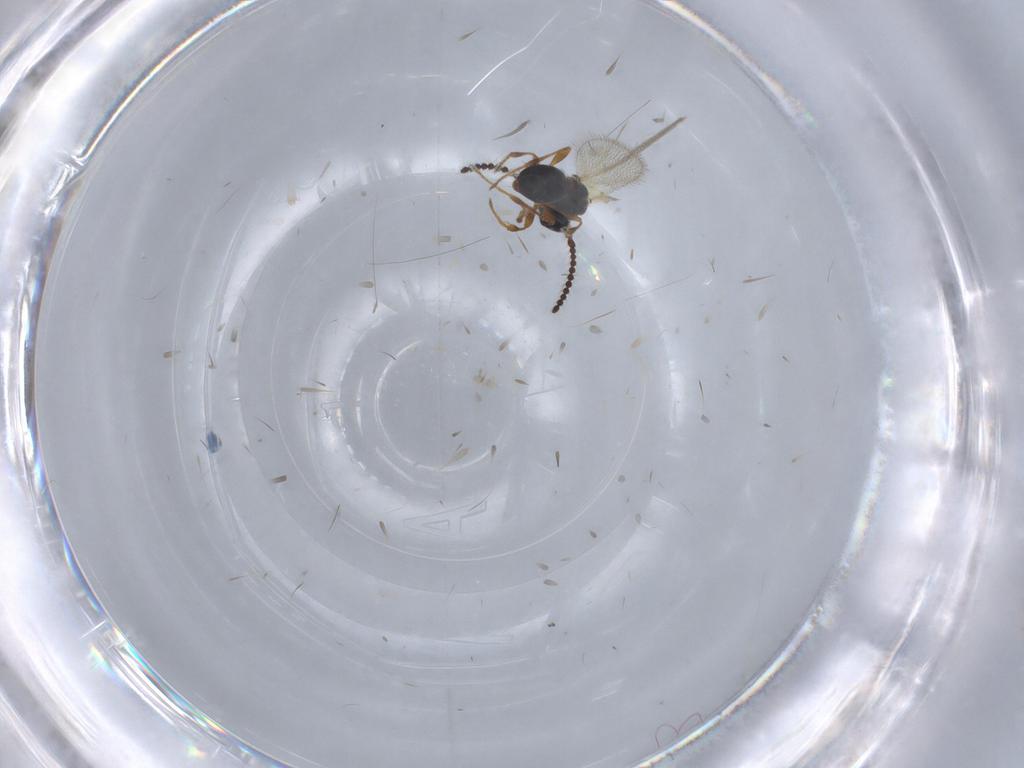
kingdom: Animalia
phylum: Arthropoda
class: Insecta
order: Hymenoptera
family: Diapriidae
